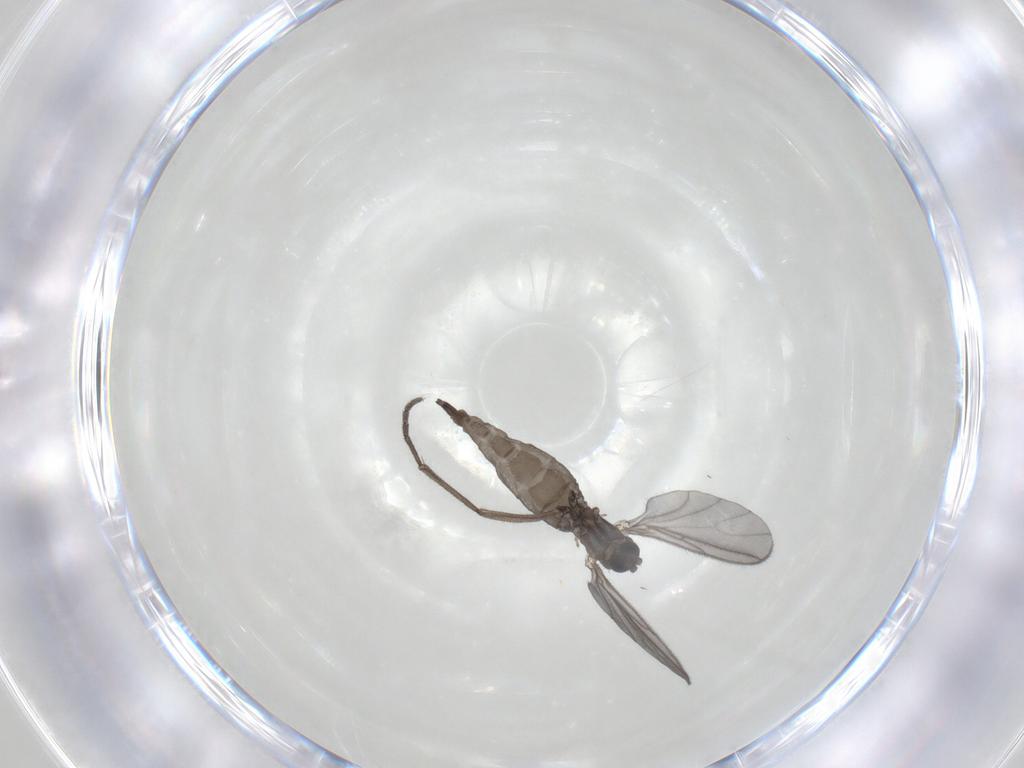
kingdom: Animalia
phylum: Arthropoda
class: Insecta
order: Diptera
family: Sciaridae
